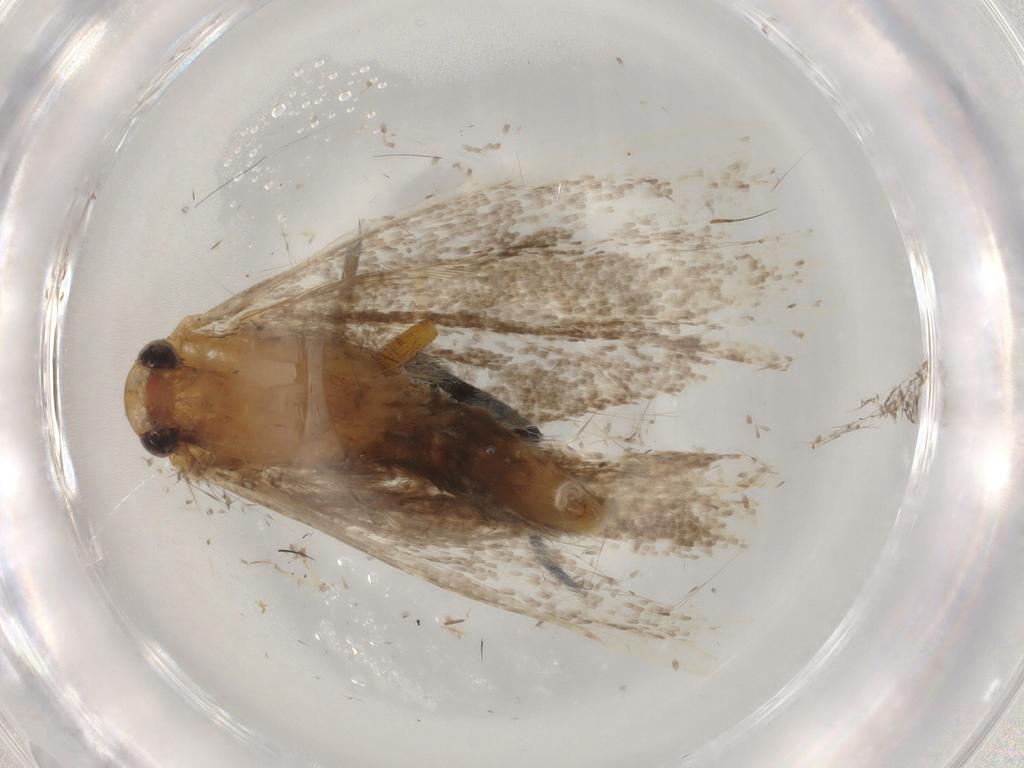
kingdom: Animalia
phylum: Arthropoda
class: Insecta
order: Lepidoptera
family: Lecithoceridae
